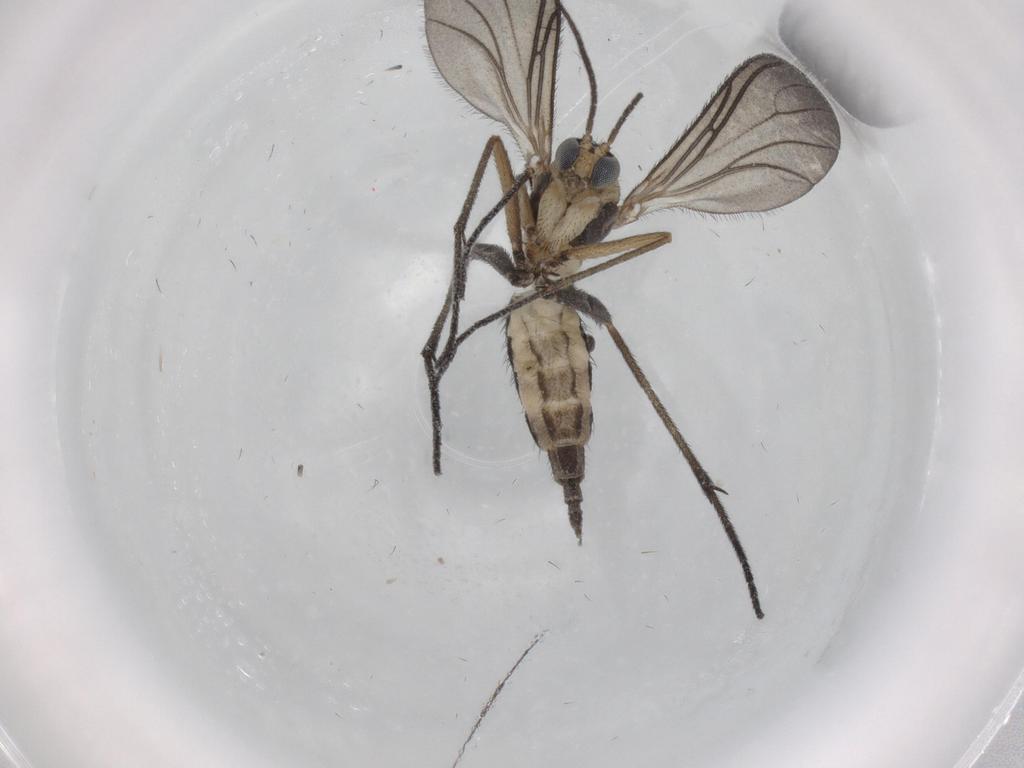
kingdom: Animalia
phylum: Arthropoda
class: Insecta
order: Diptera
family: Sciaridae
